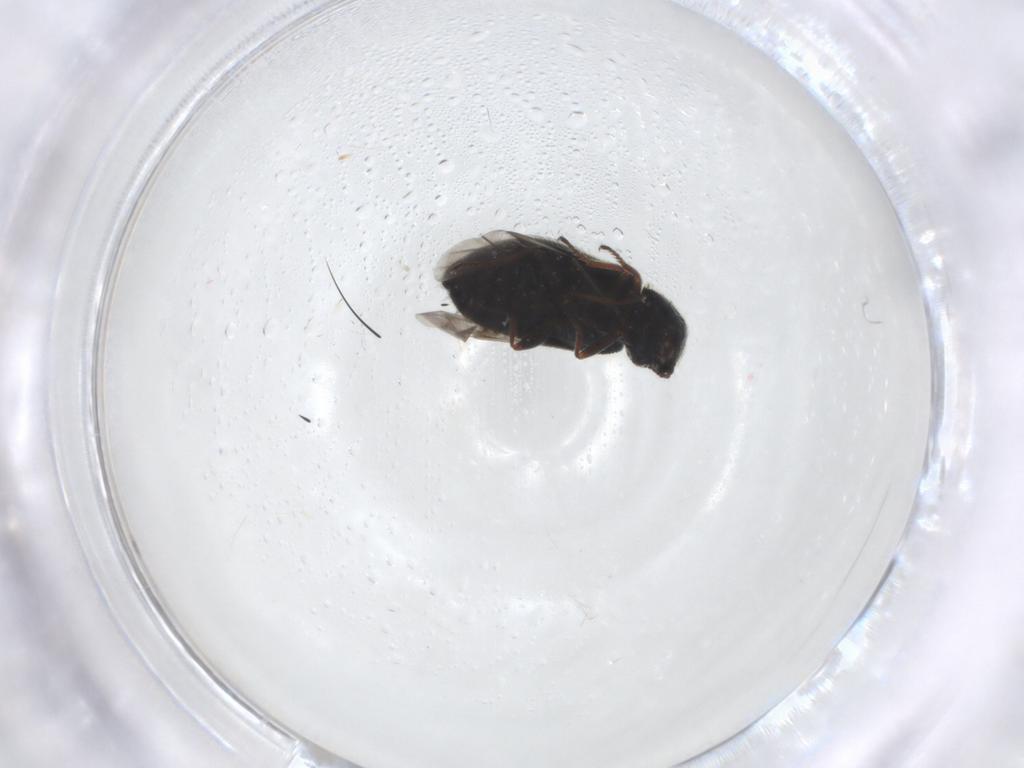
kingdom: Animalia
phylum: Arthropoda
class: Insecta
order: Coleoptera
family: Melyridae
